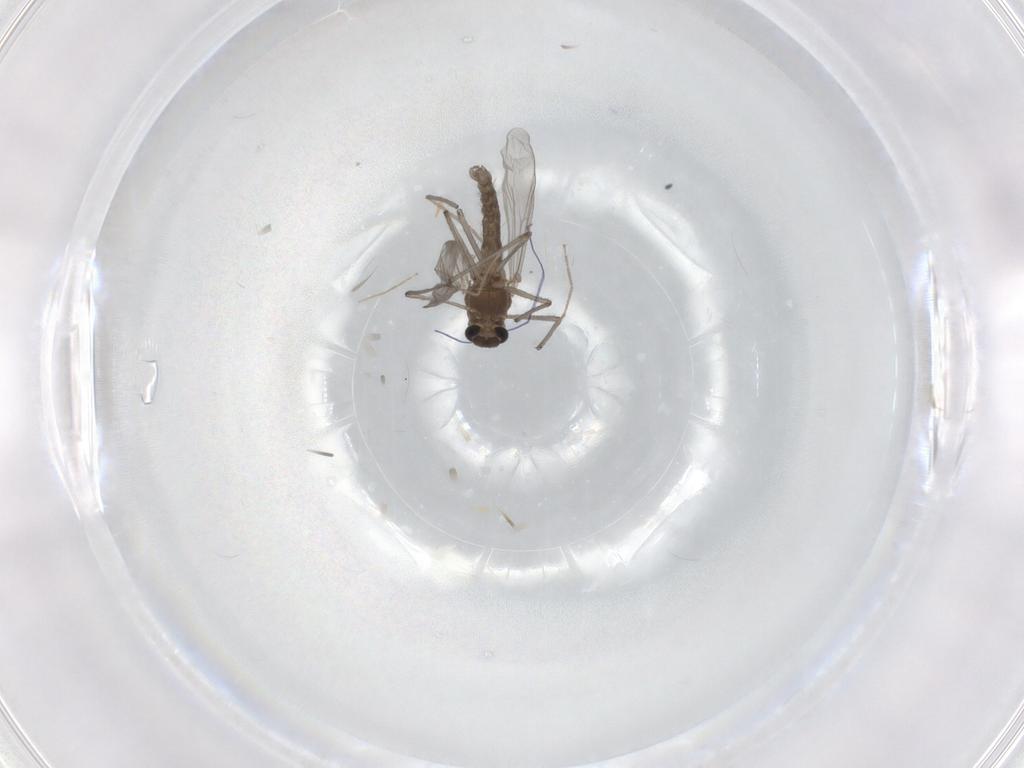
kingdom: Animalia
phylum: Arthropoda
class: Insecta
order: Diptera
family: Chironomidae
